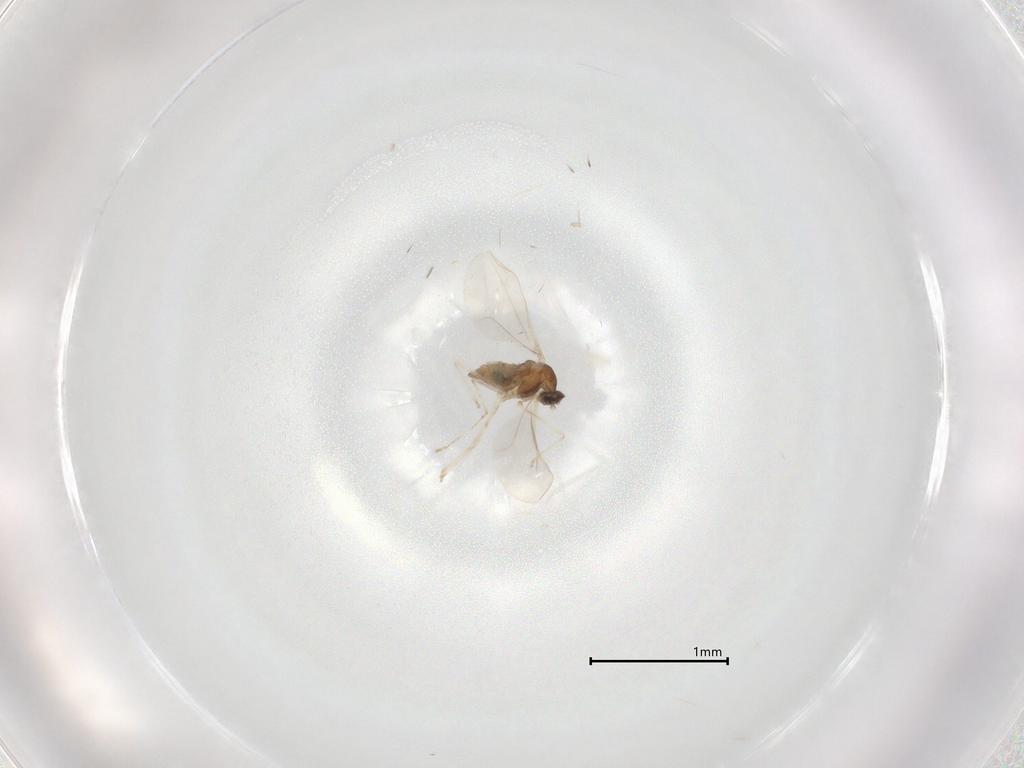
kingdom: Animalia
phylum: Arthropoda
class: Insecta
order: Diptera
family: Cecidomyiidae
